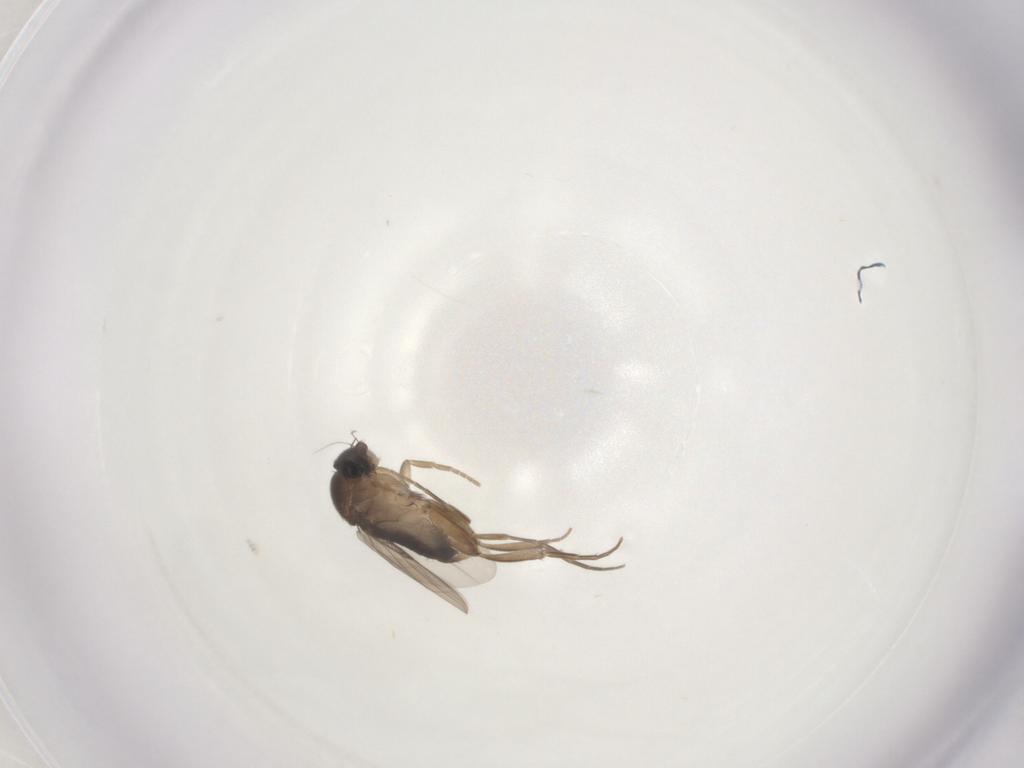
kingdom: Animalia
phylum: Arthropoda
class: Insecta
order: Diptera
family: Phoridae
